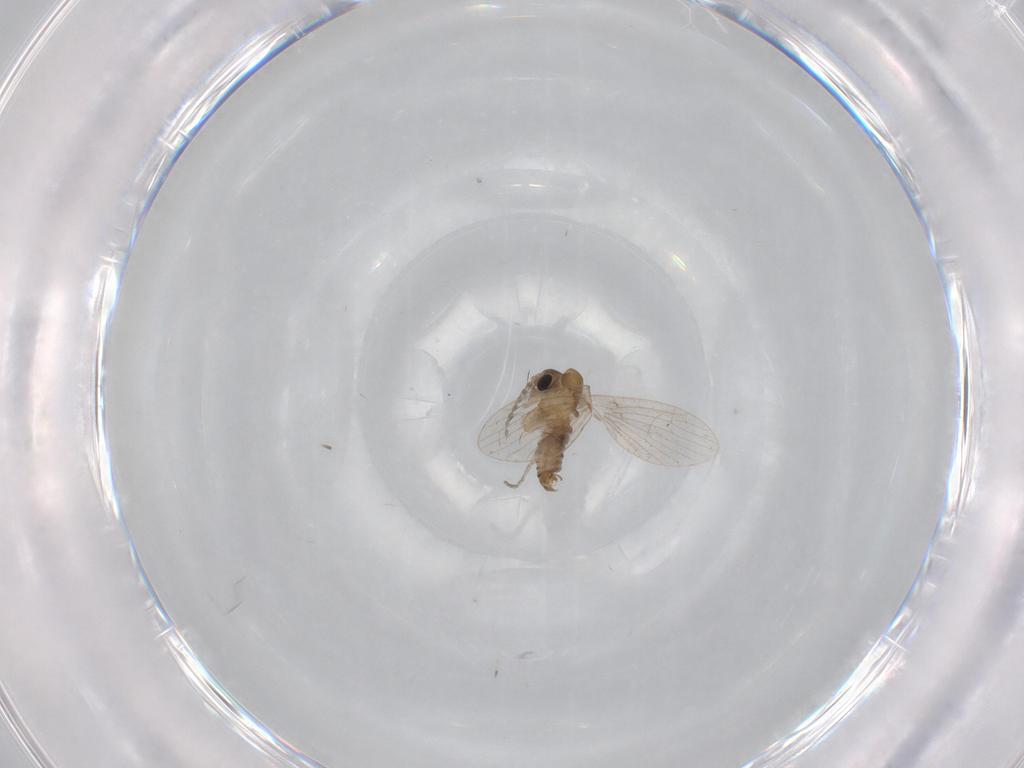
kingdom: Animalia
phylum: Arthropoda
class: Insecta
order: Diptera
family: Psychodidae
